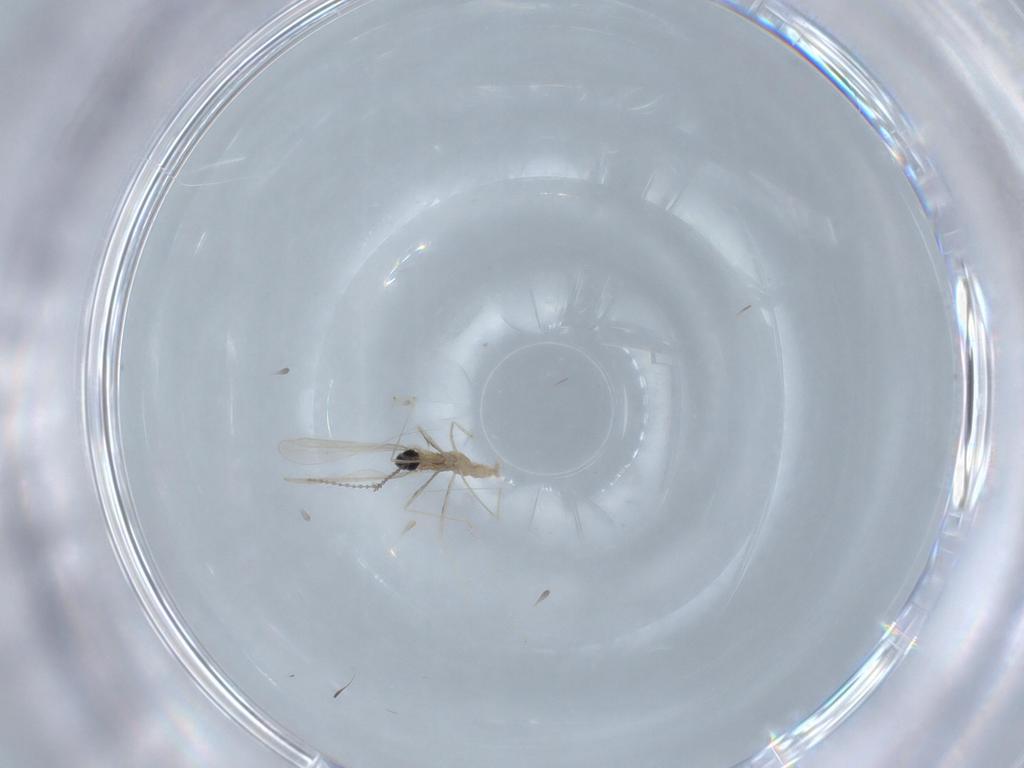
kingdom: Animalia
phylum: Arthropoda
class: Insecta
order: Diptera
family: Cecidomyiidae
